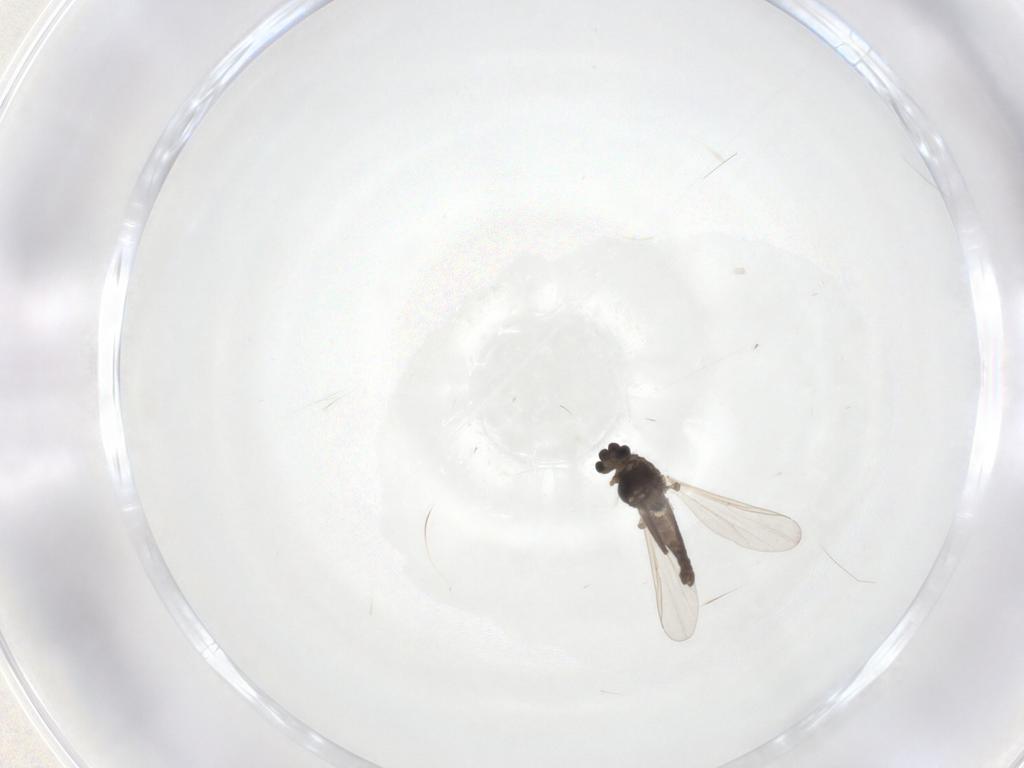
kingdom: Animalia
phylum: Arthropoda
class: Insecta
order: Diptera
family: Chironomidae
